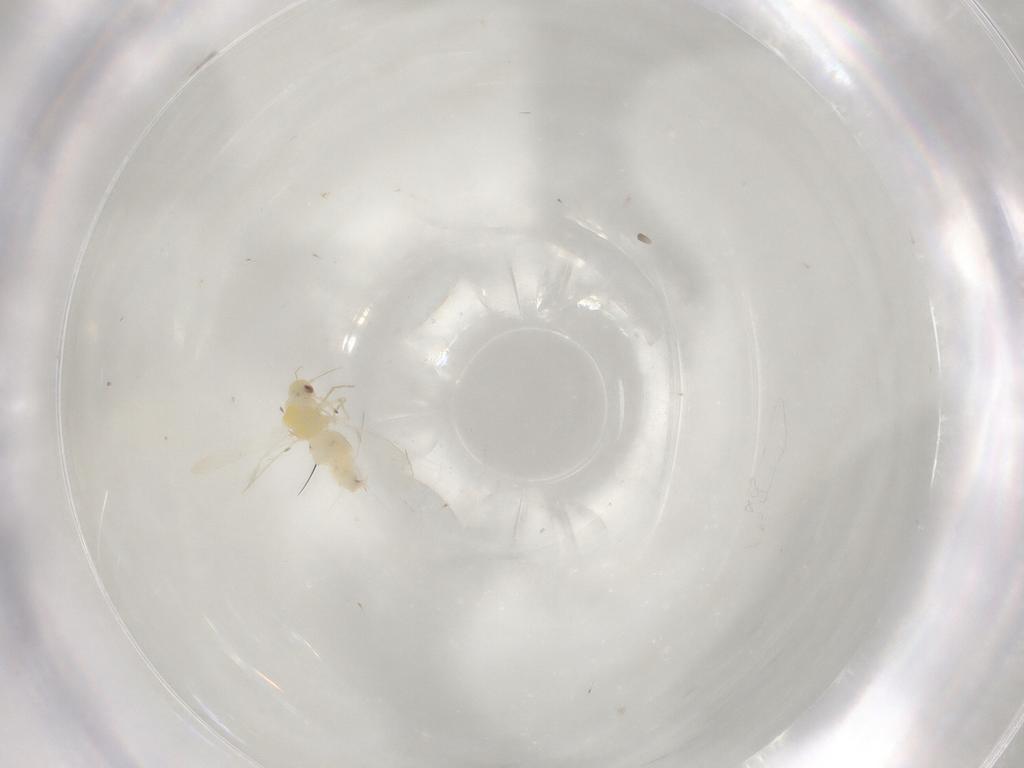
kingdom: Animalia
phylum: Arthropoda
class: Insecta
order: Hemiptera
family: Aleyrodidae
